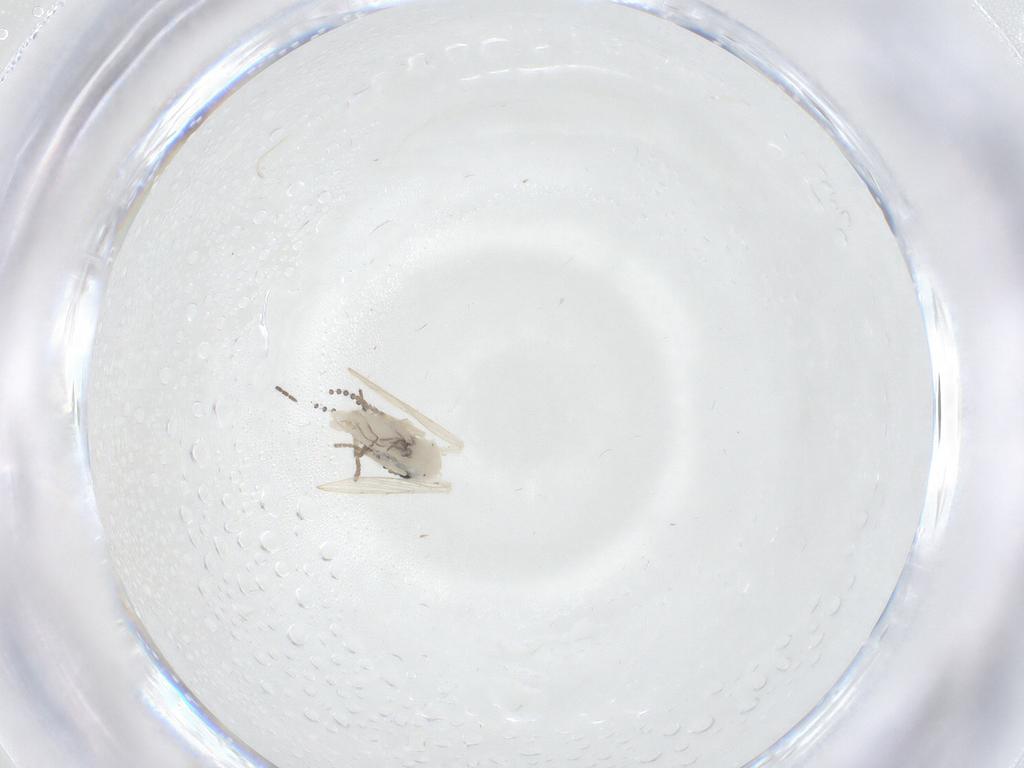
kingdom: Animalia
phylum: Arthropoda
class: Insecta
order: Diptera
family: Psychodidae
